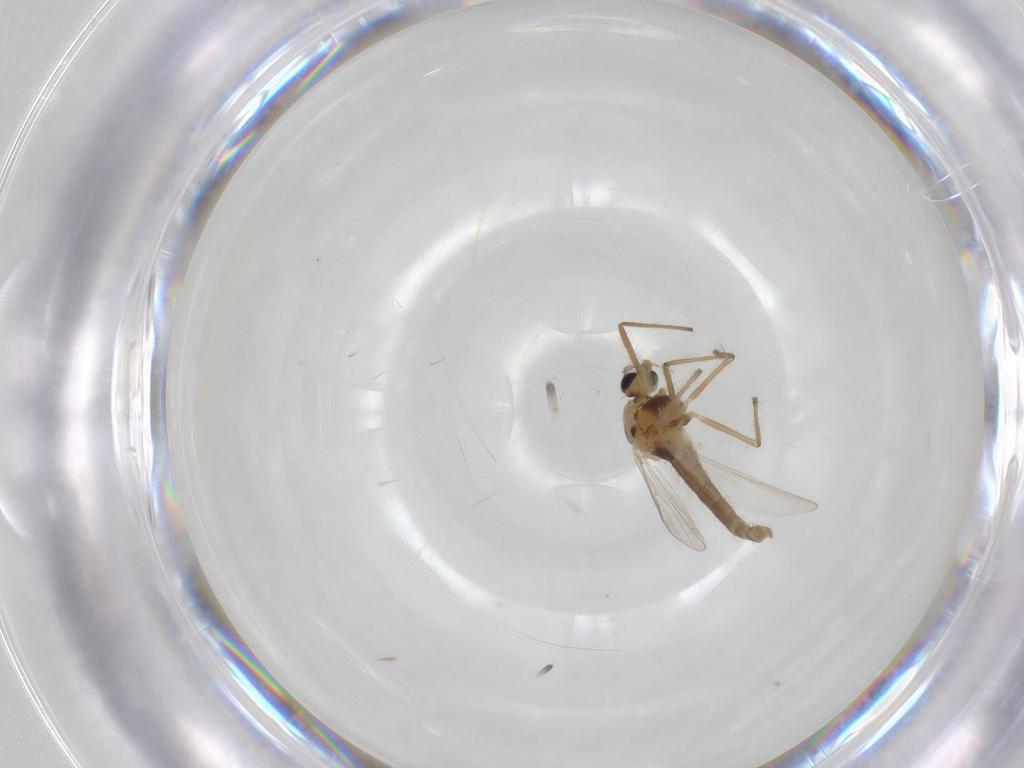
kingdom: Animalia
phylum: Arthropoda
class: Insecta
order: Diptera
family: Chironomidae
